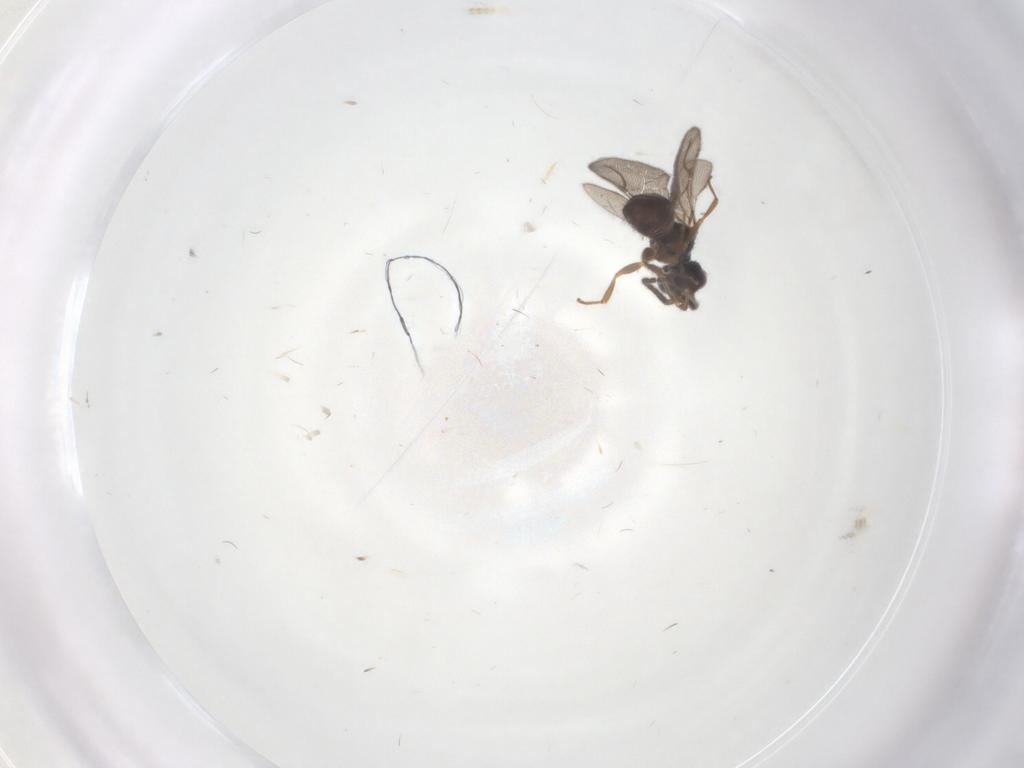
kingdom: Animalia
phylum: Arthropoda
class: Insecta
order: Hymenoptera
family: Bethylidae
